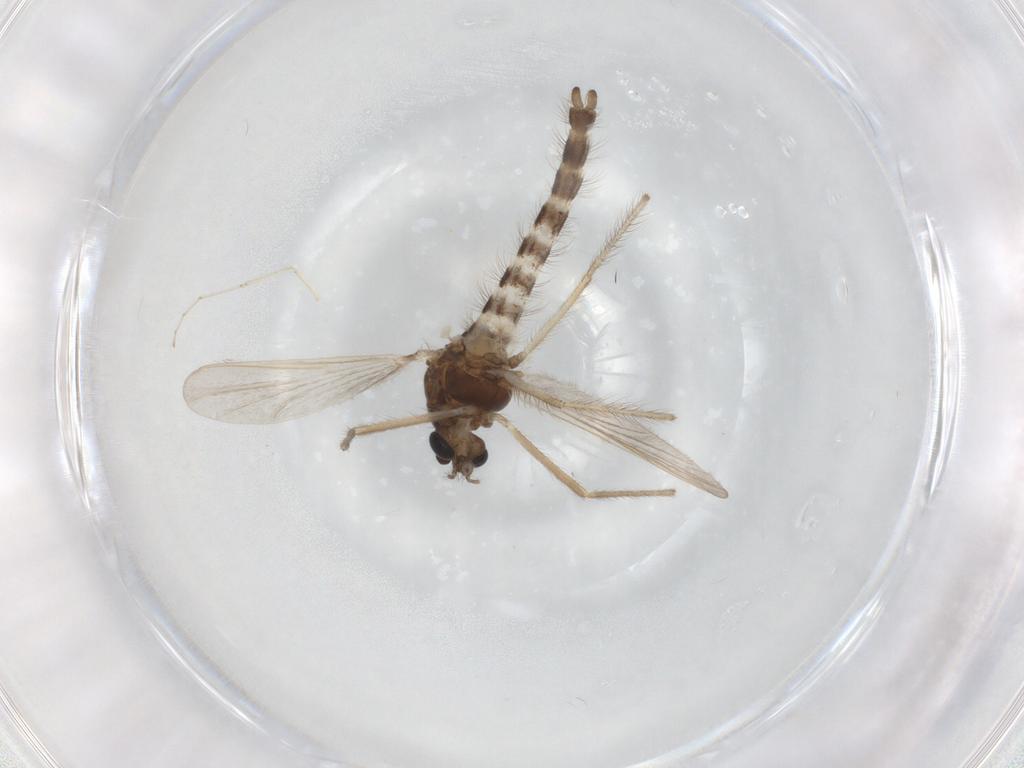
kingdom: Animalia
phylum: Arthropoda
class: Insecta
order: Diptera
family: Chironomidae
